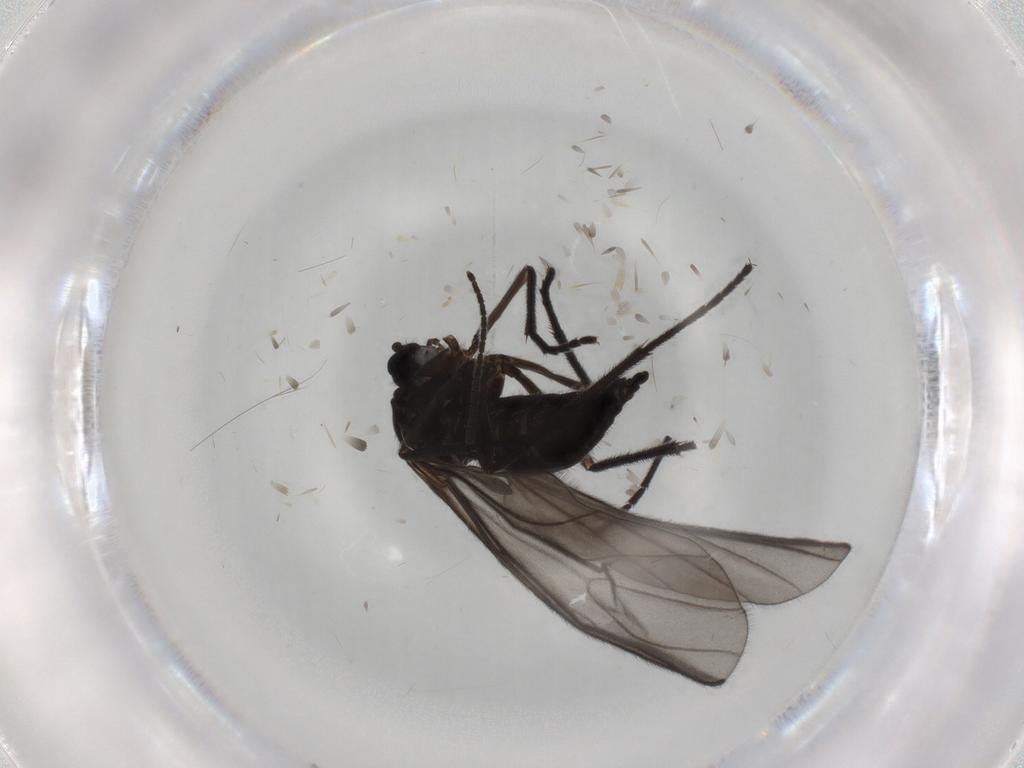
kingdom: Animalia
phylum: Arthropoda
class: Insecta
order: Diptera
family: Sciaridae
